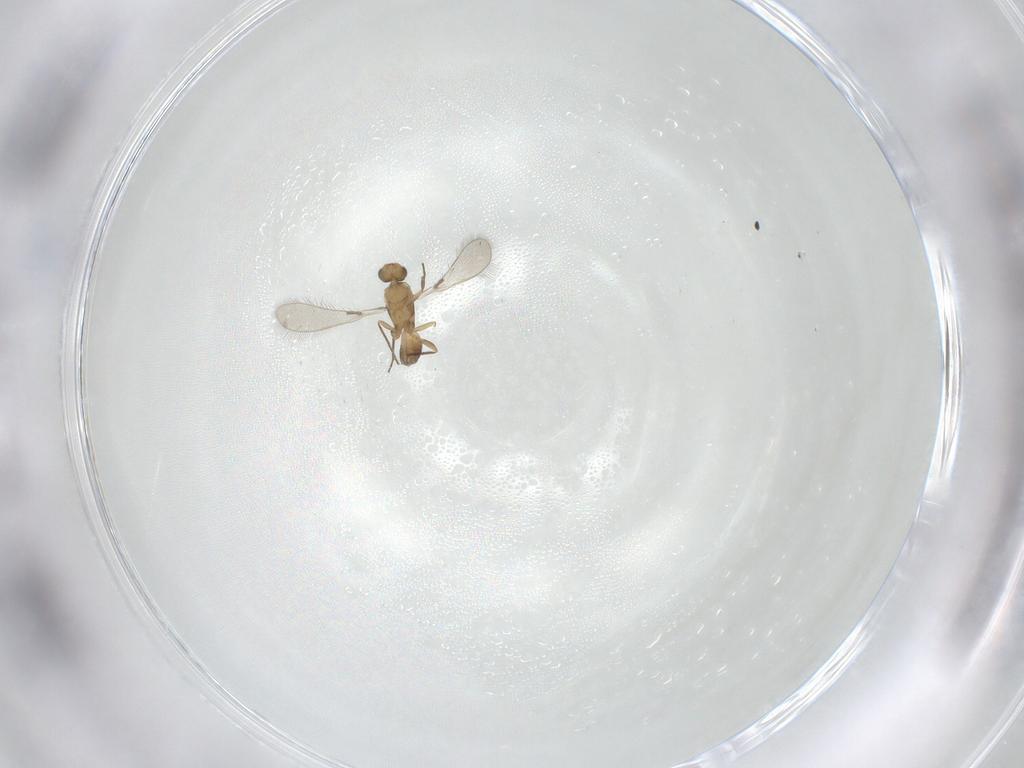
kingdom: Animalia
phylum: Arthropoda
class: Insecta
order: Hymenoptera
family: Mymaridae
